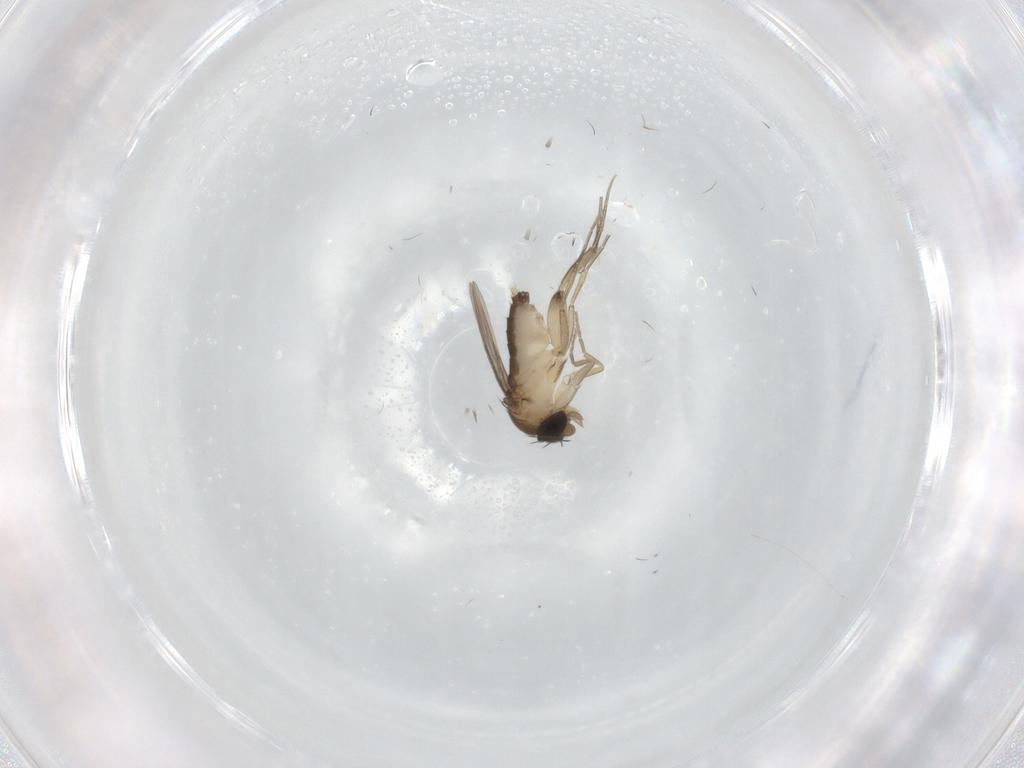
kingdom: Animalia
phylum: Arthropoda
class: Insecta
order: Diptera
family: Phoridae
